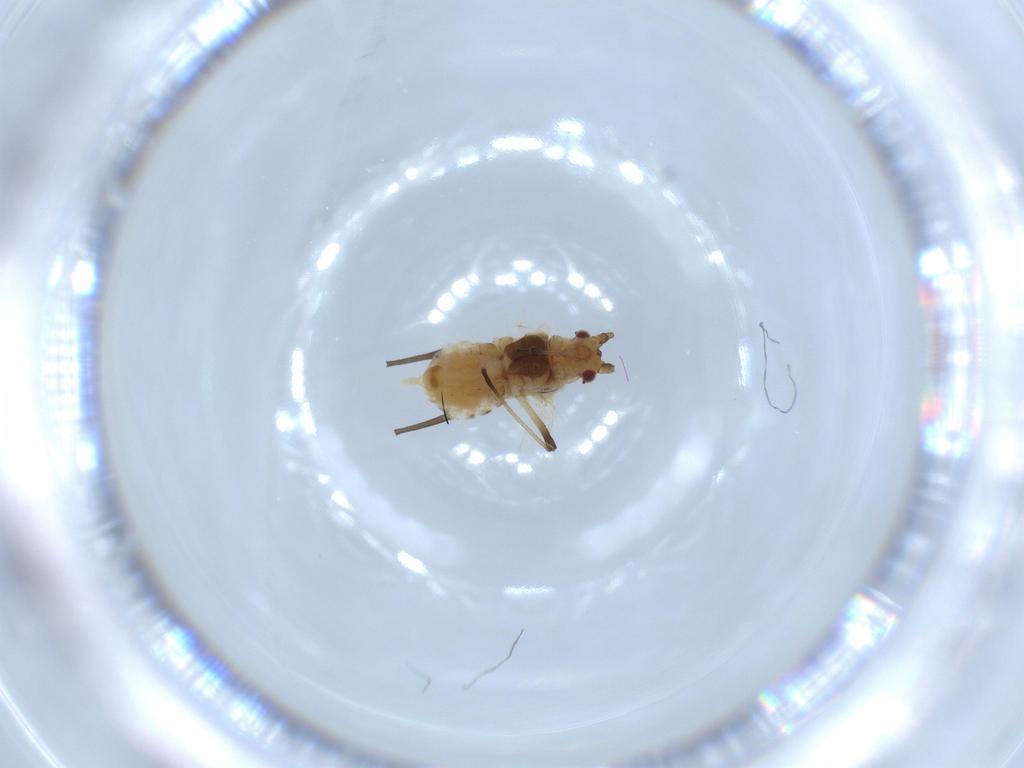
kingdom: Animalia
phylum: Arthropoda
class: Insecta
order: Hemiptera
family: Aphididae
